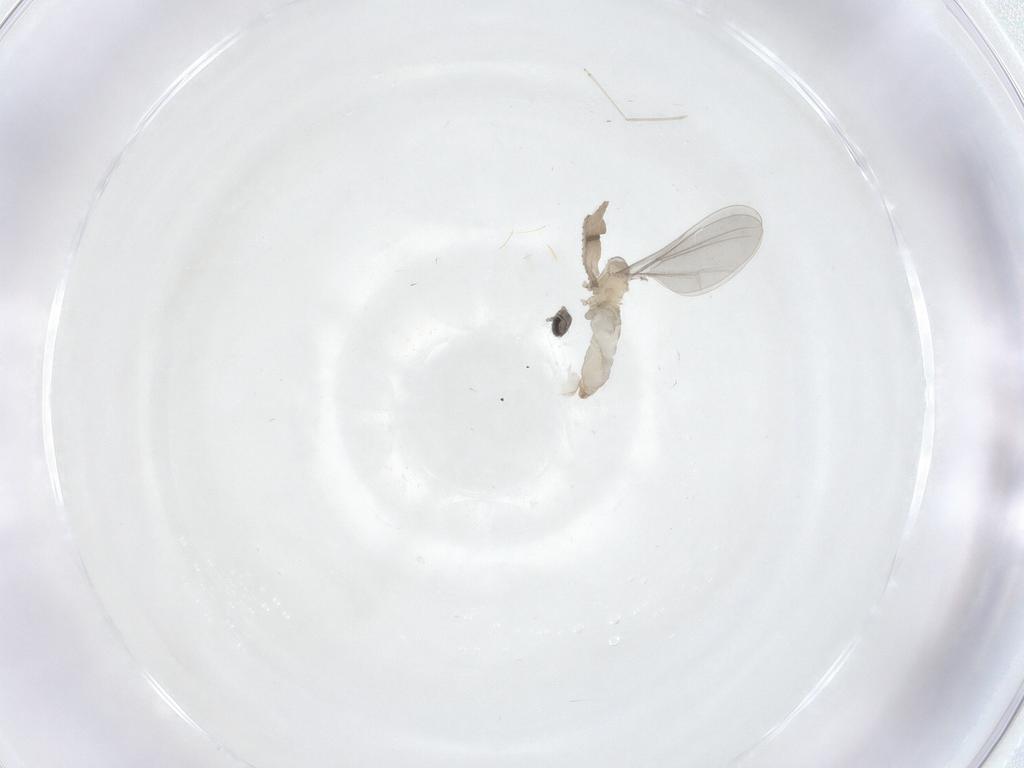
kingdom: Animalia
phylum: Arthropoda
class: Insecta
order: Diptera
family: Cecidomyiidae
